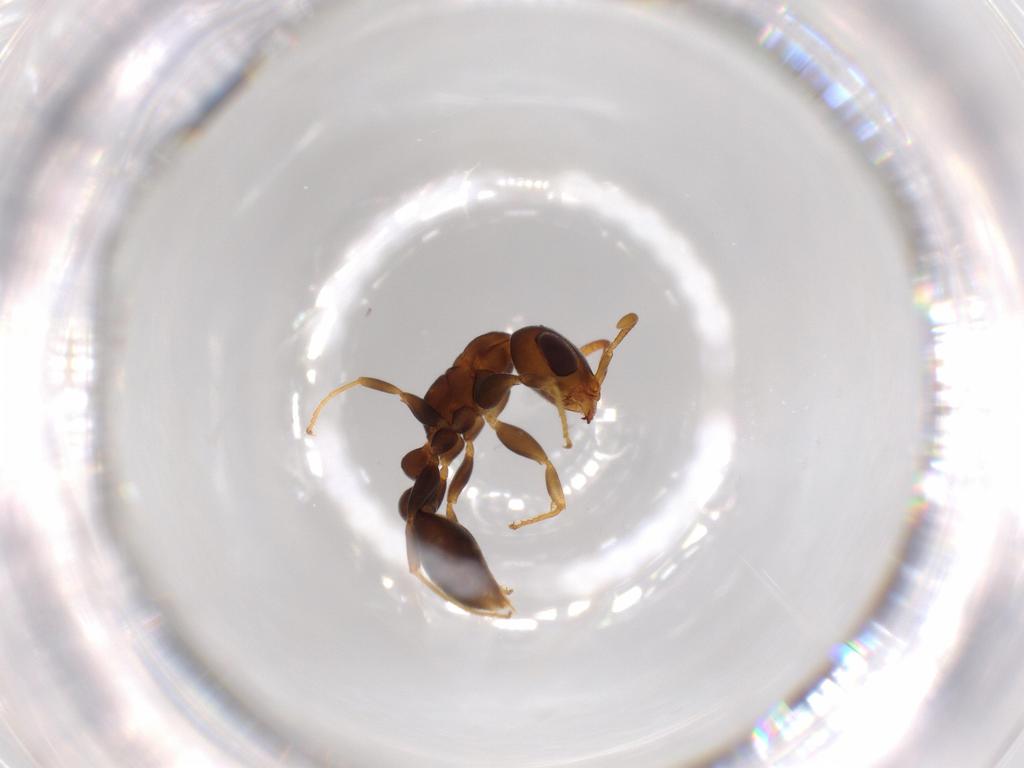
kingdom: Animalia
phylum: Arthropoda
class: Insecta
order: Hymenoptera
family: Formicidae
